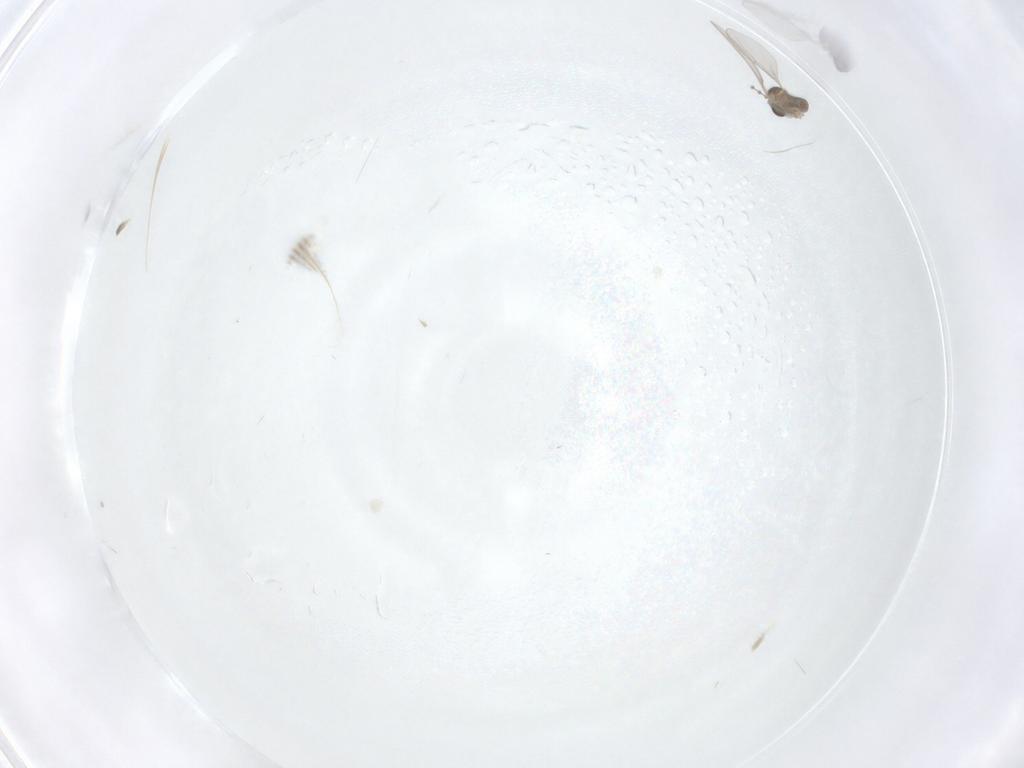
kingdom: Animalia
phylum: Arthropoda
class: Insecta
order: Diptera
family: Cecidomyiidae
